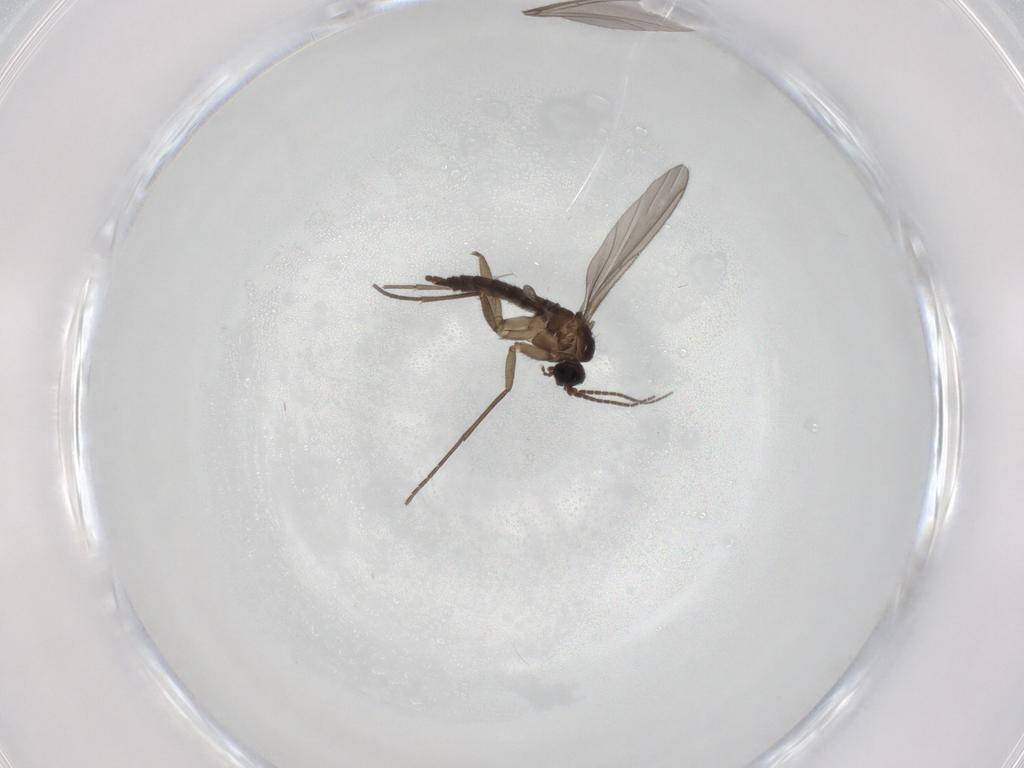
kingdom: Animalia
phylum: Arthropoda
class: Insecta
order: Diptera
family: Sciaridae
